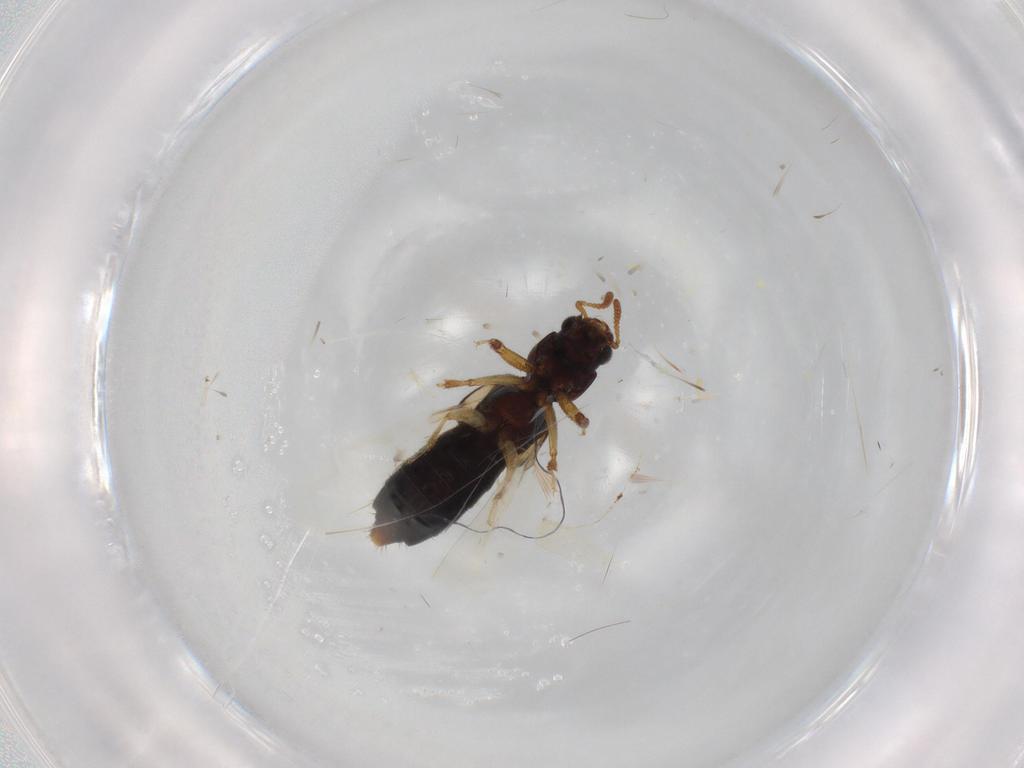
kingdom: Animalia
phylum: Arthropoda
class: Insecta
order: Coleoptera
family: Staphylinidae
